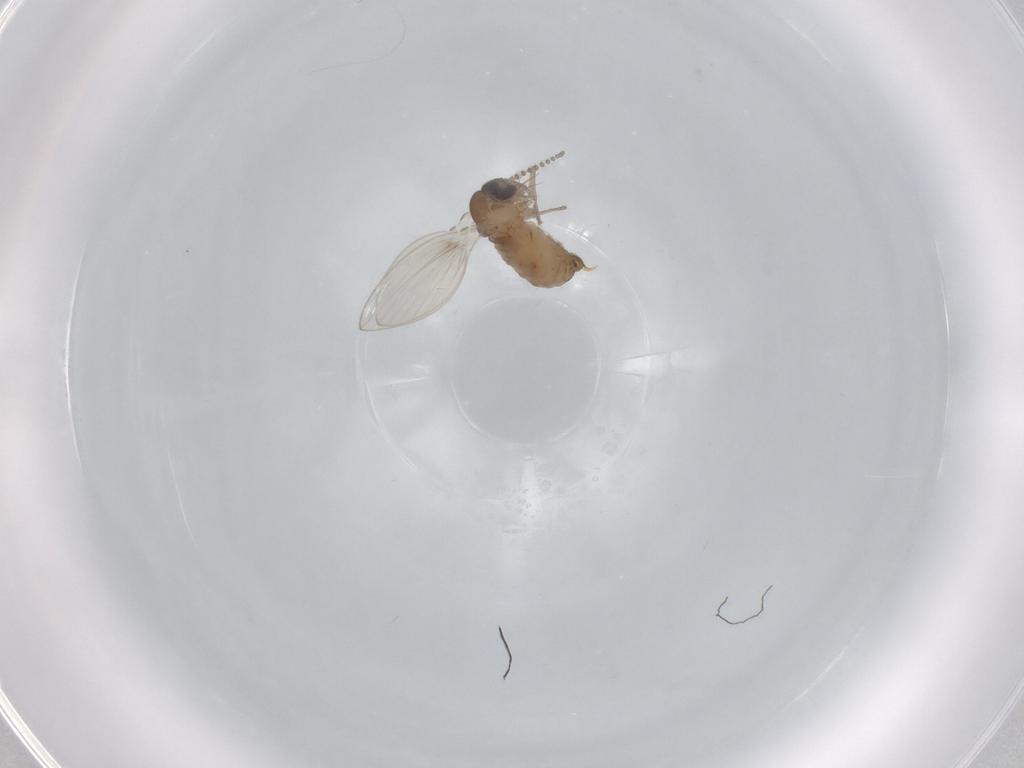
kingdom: Animalia
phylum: Arthropoda
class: Insecta
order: Diptera
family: Psychodidae
